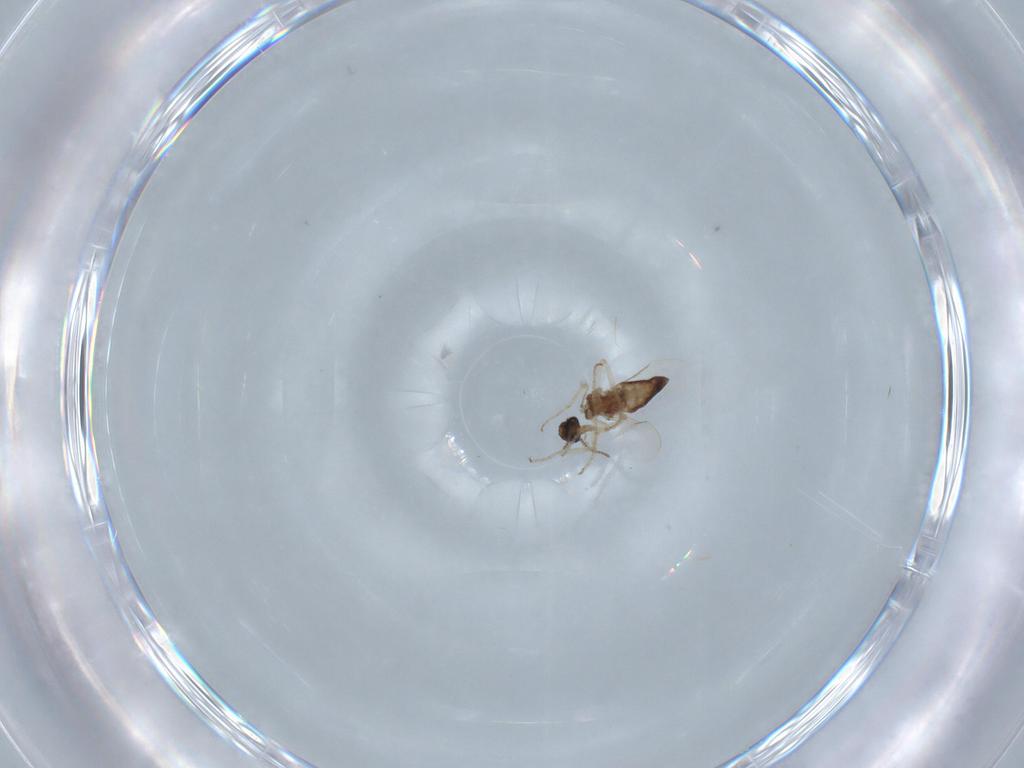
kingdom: Animalia
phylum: Arthropoda
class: Insecta
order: Diptera
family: Ceratopogonidae
